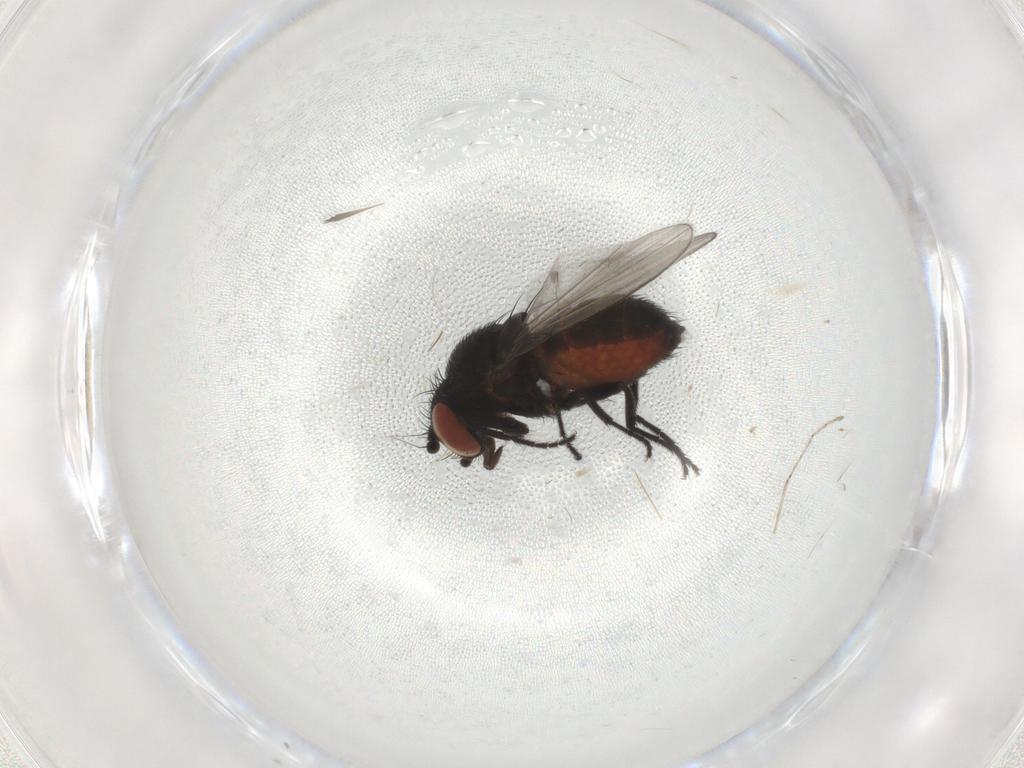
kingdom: Animalia
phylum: Arthropoda
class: Insecta
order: Diptera
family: Milichiidae
